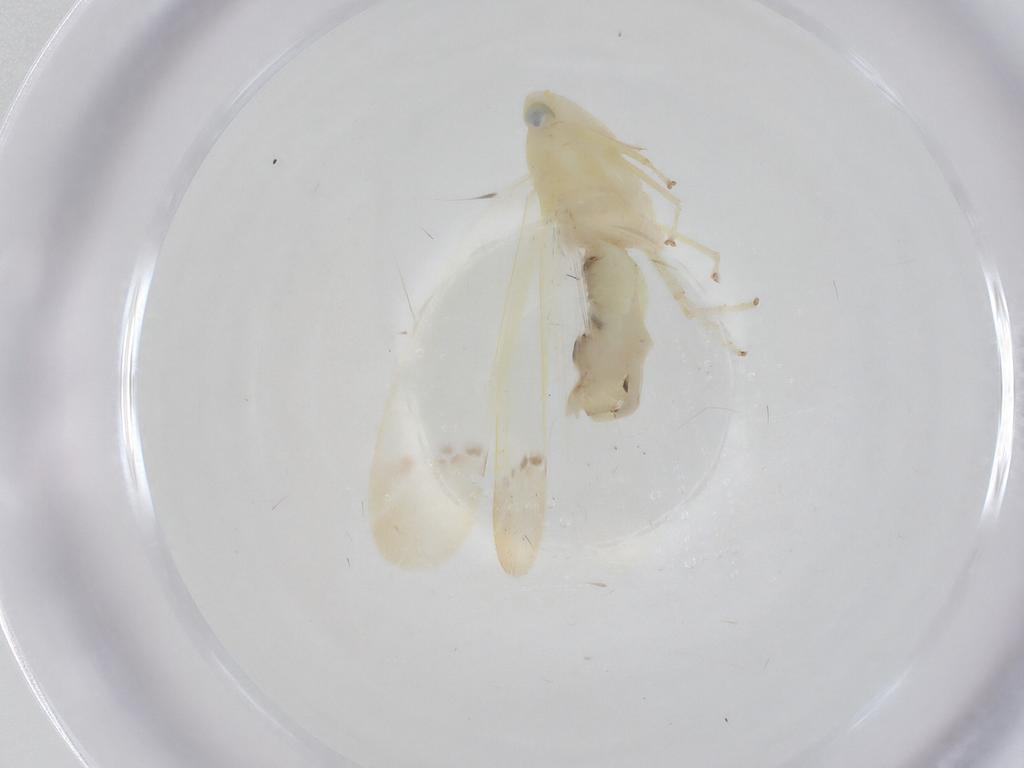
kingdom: Animalia
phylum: Arthropoda
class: Insecta
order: Hemiptera
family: Cicadellidae
